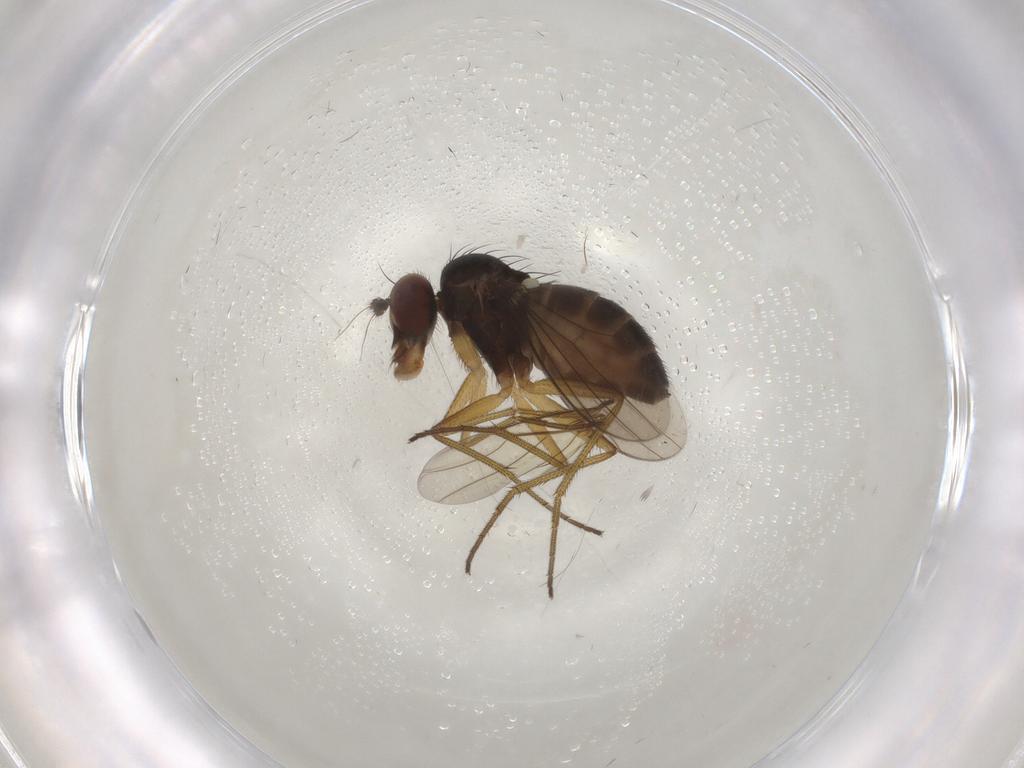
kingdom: Animalia
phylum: Arthropoda
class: Insecta
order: Diptera
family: Dolichopodidae
